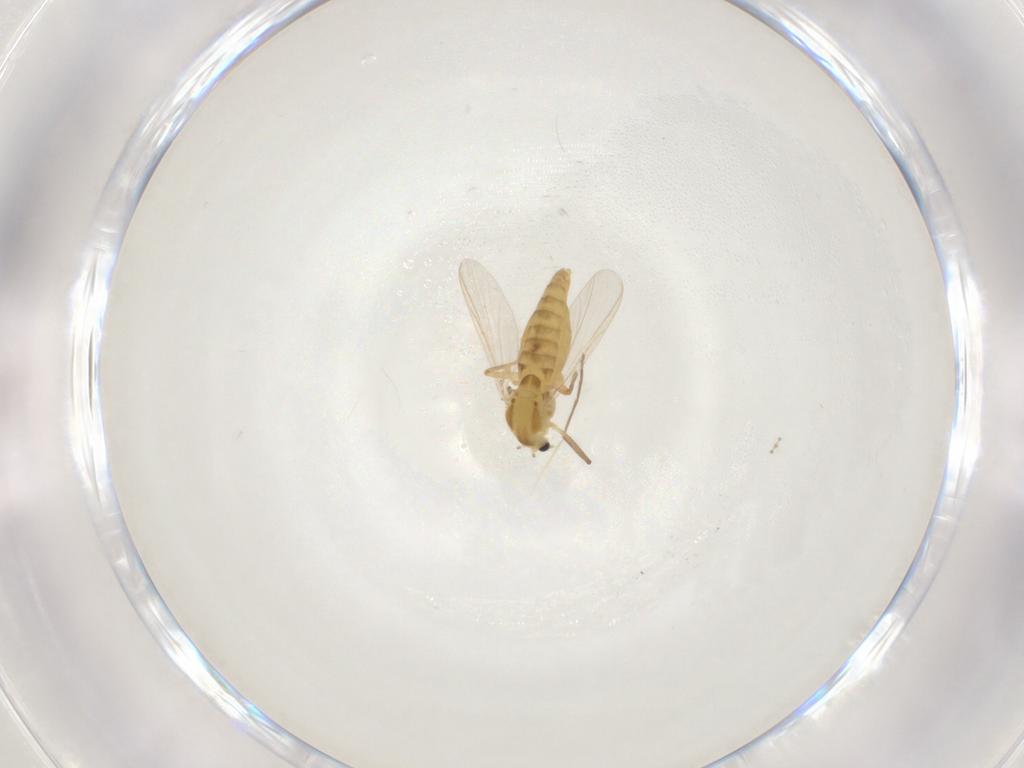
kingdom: Animalia
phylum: Arthropoda
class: Insecta
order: Diptera
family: Chironomidae
